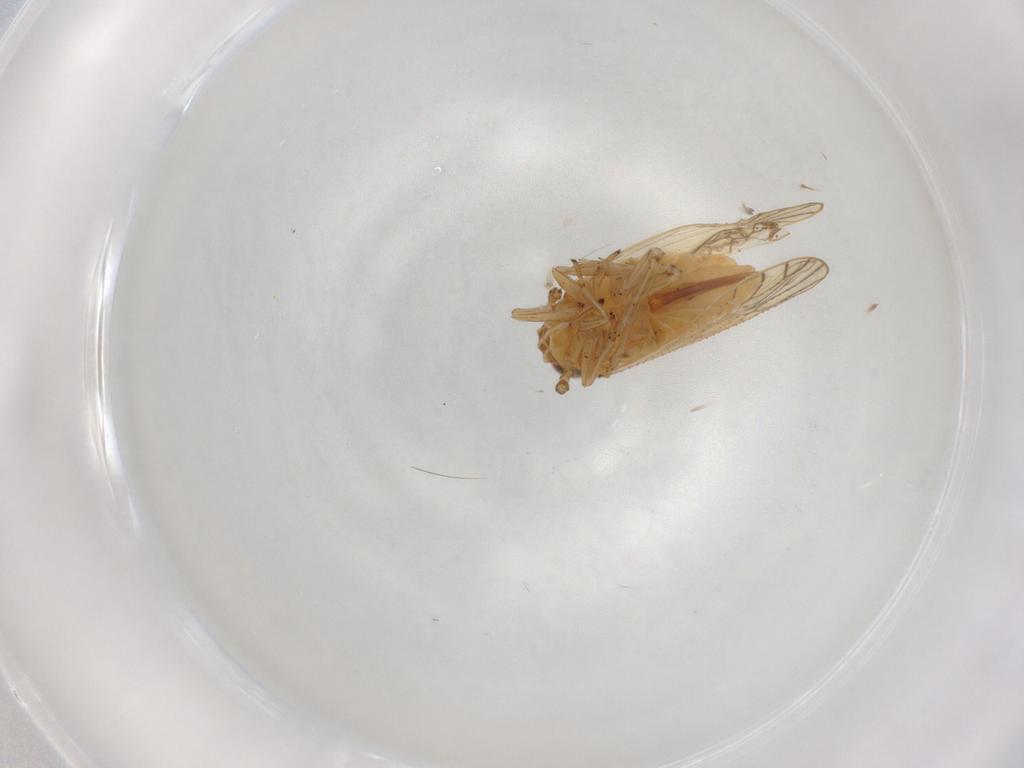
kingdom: Animalia
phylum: Arthropoda
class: Insecta
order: Hemiptera
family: Delphacidae
